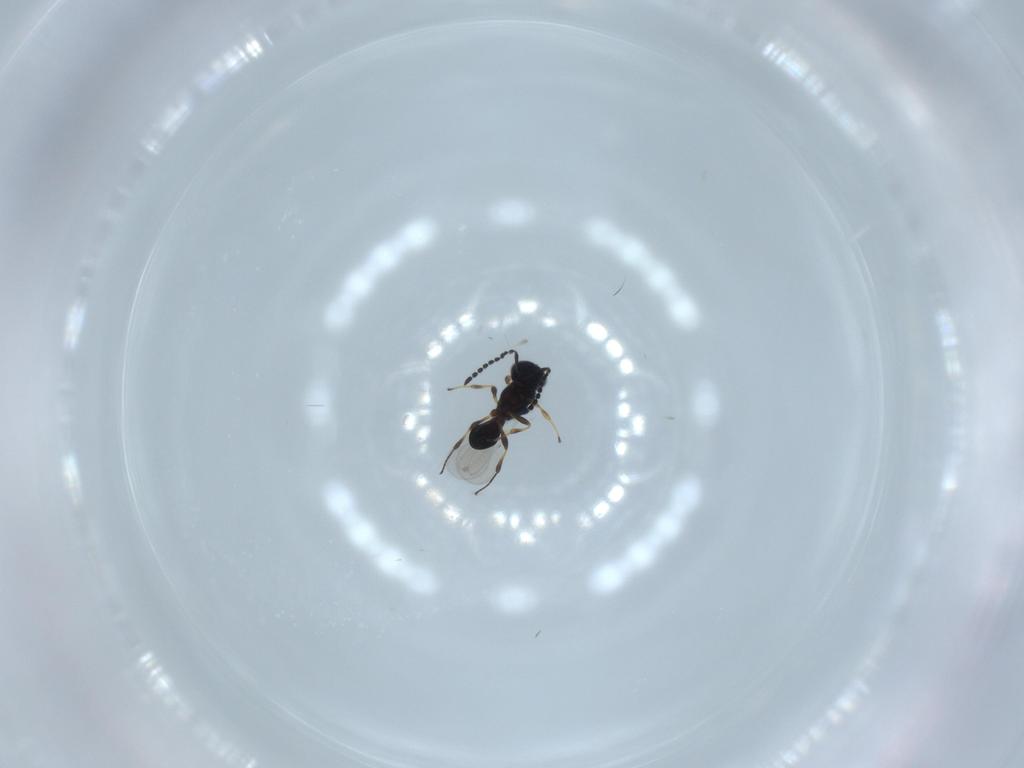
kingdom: Animalia
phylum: Arthropoda
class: Insecta
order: Hymenoptera
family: Platygastridae
